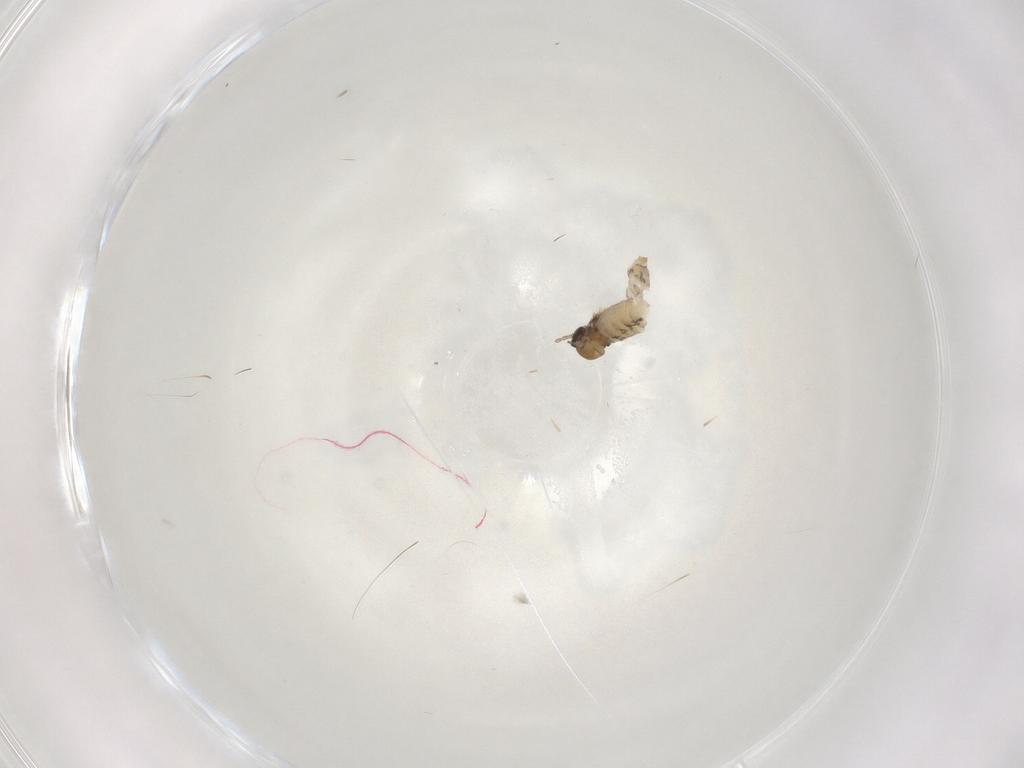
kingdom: Animalia
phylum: Arthropoda
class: Insecta
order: Diptera
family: Cecidomyiidae
